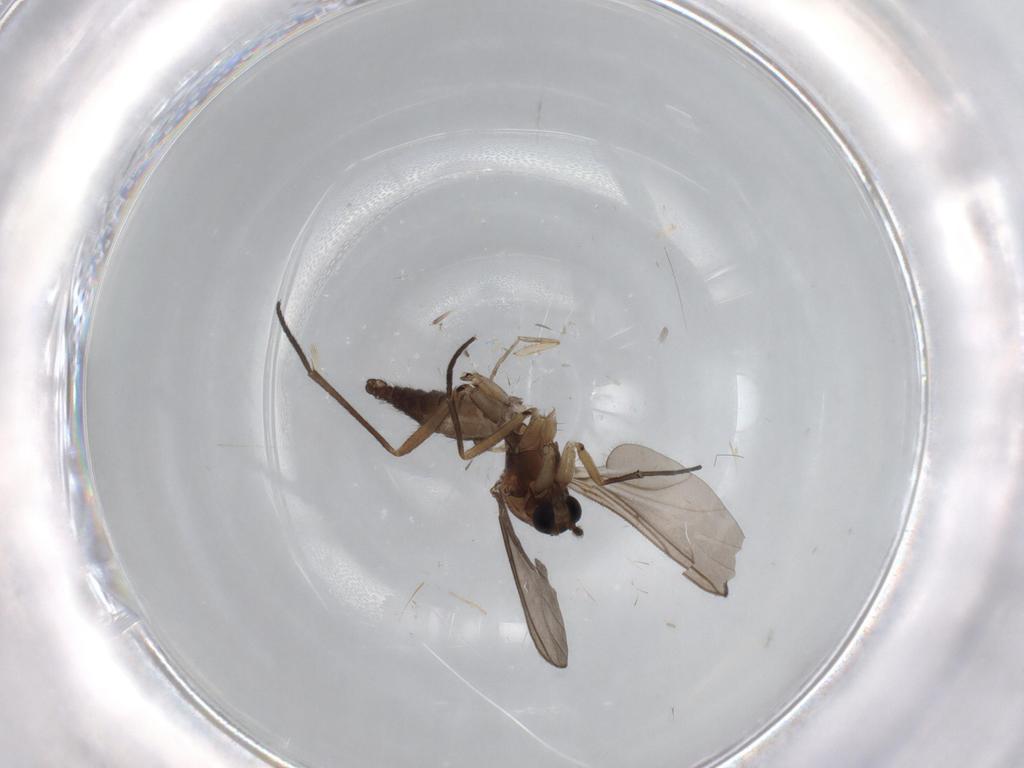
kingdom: Animalia
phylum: Arthropoda
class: Insecta
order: Diptera
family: Sciaridae
